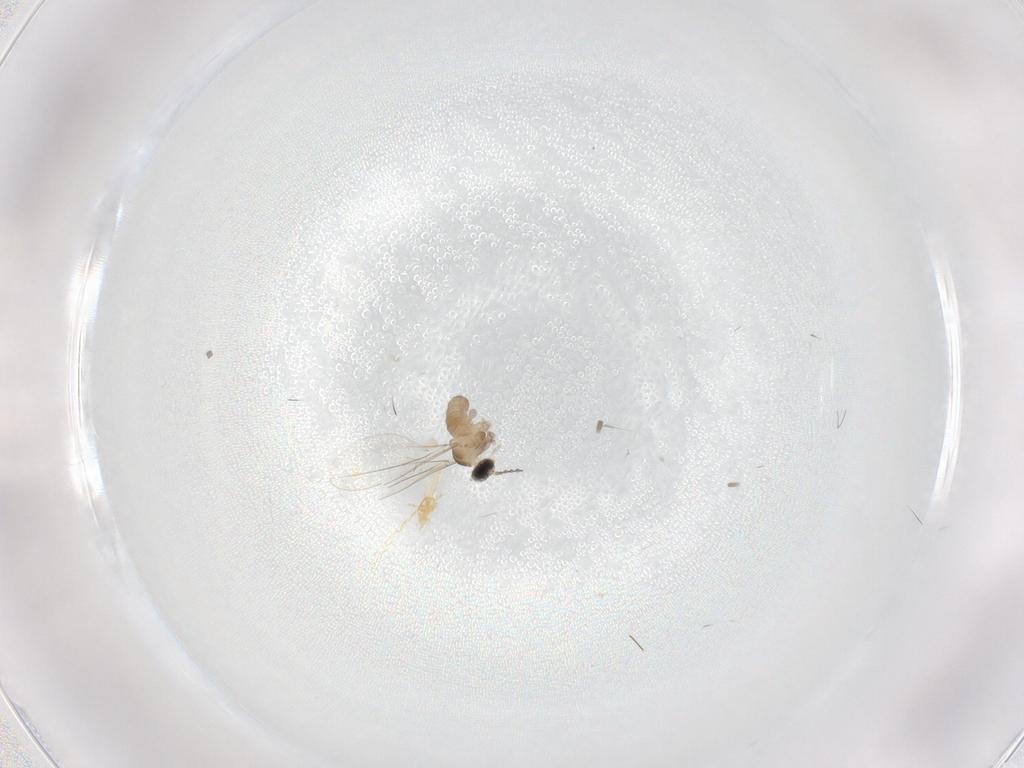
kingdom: Animalia
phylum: Arthropoda
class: Insecta
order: Diptera
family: Cecidomyiidae
